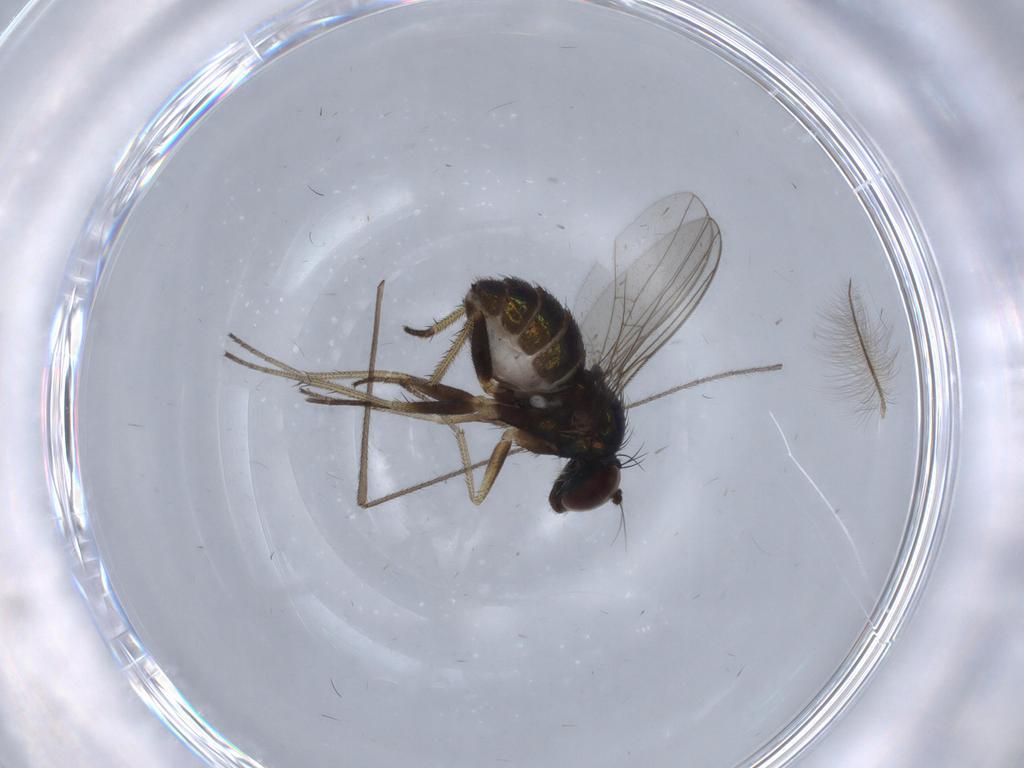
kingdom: Animalia
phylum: Arthropoda
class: Insecta
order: Diptera
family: Limoniidae
